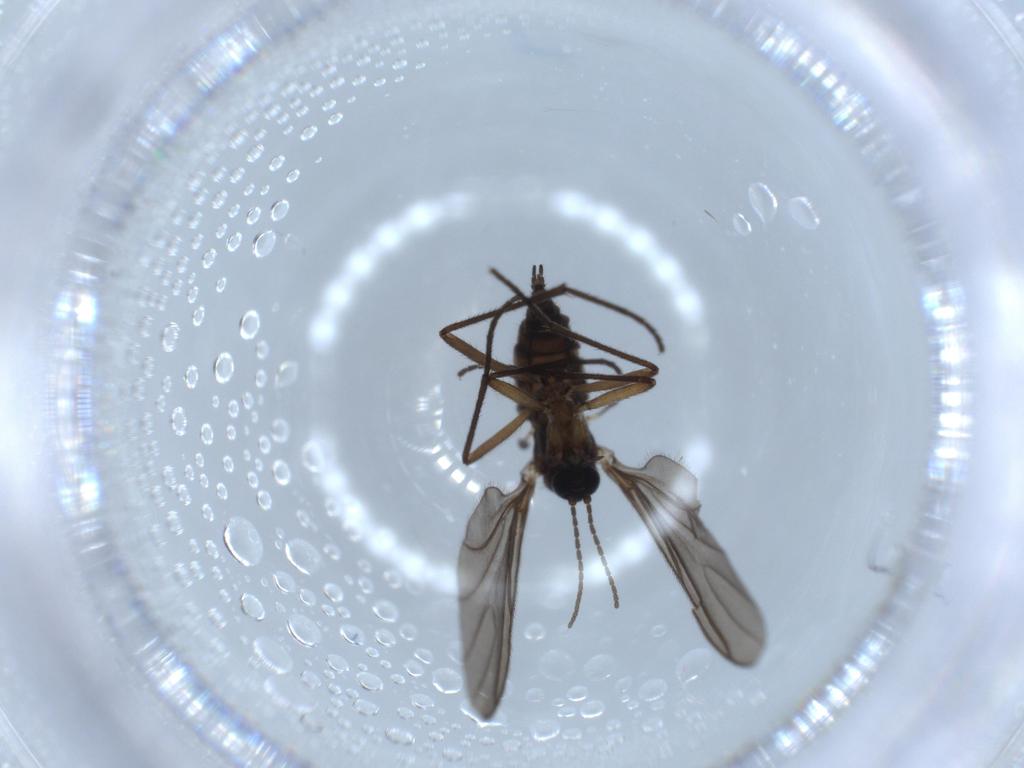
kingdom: Animalia
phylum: Arthropoda
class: Insecta
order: Diptera
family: Sciaridae
